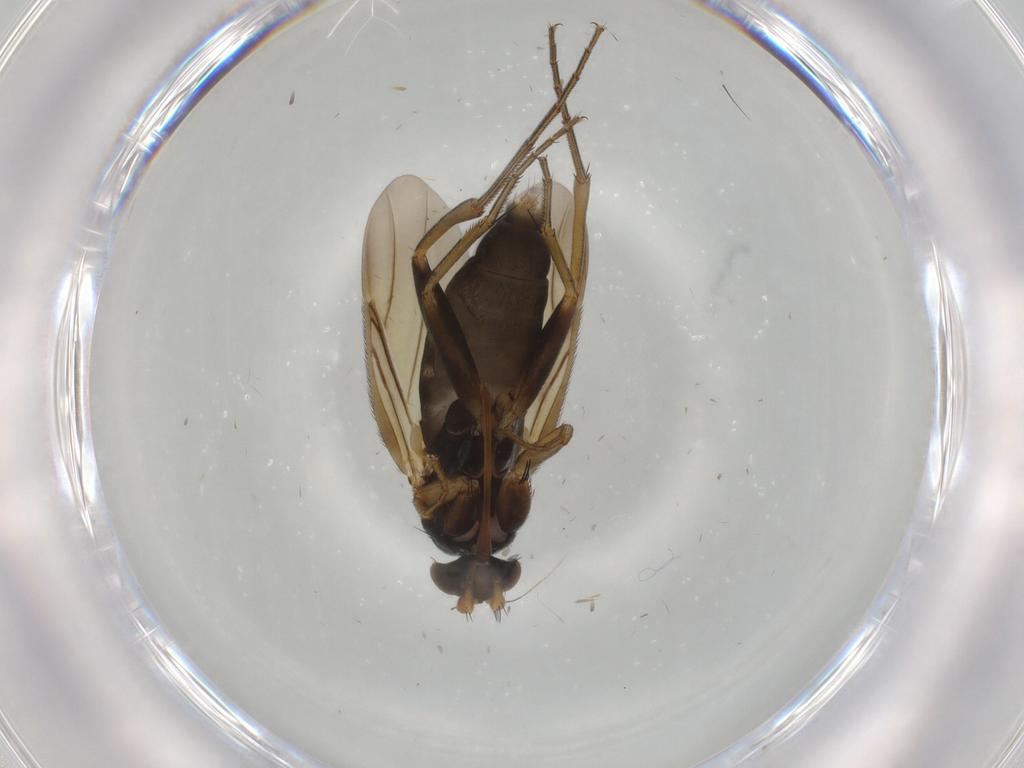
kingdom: Animalia
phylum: Arthropoda
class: Insecta
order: Diptera
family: Phoridae
